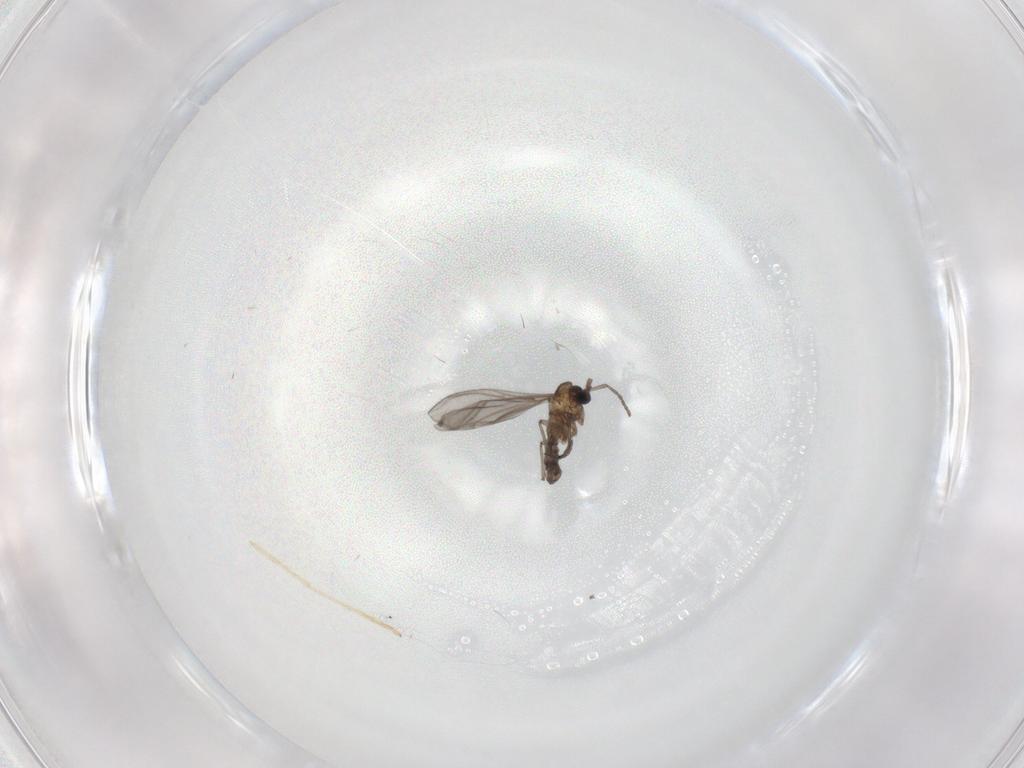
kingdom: Animalia
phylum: Arthropoda
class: Insecta
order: Diptera
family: Sciaridae
